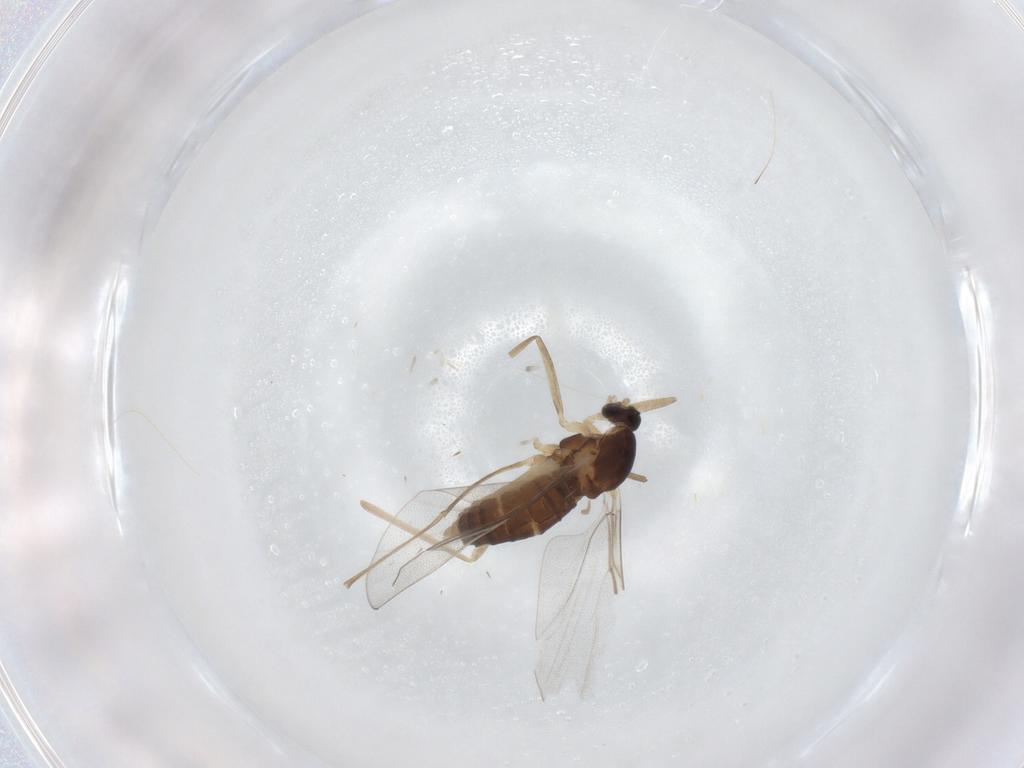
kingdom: Animalia
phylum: Arthropoda
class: Insecta
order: Diptera
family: Cecidomyiidae
